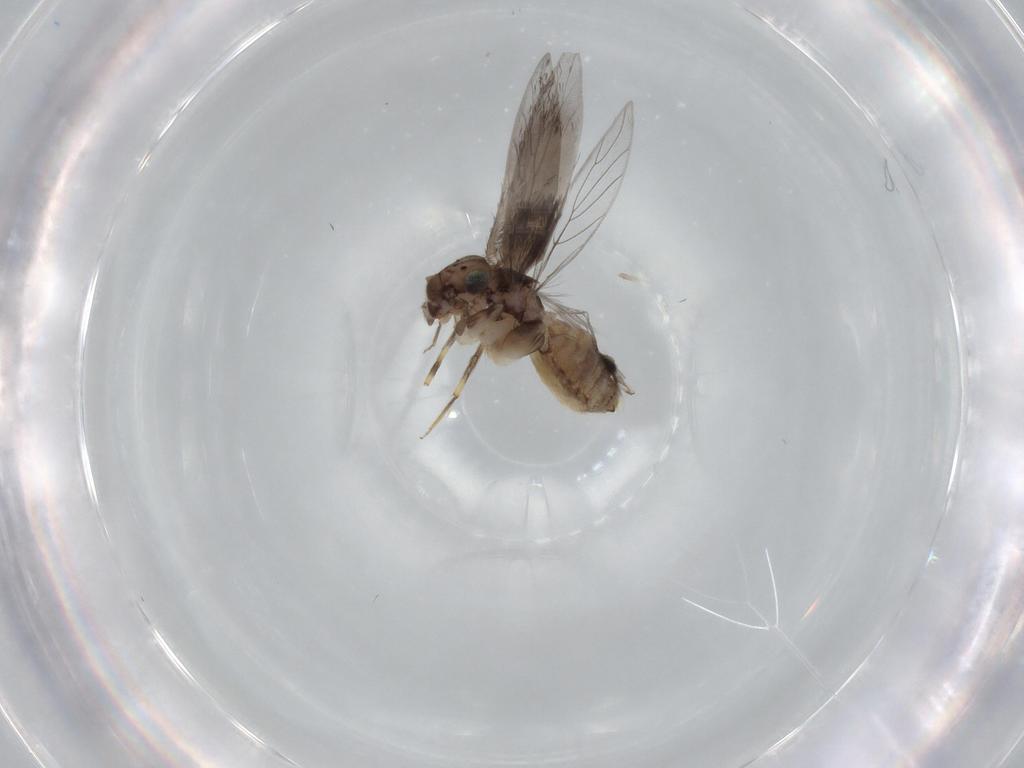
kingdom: Animalia
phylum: Arthropoda
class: Insecta
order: Psocodea
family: Lepidopsocidae
